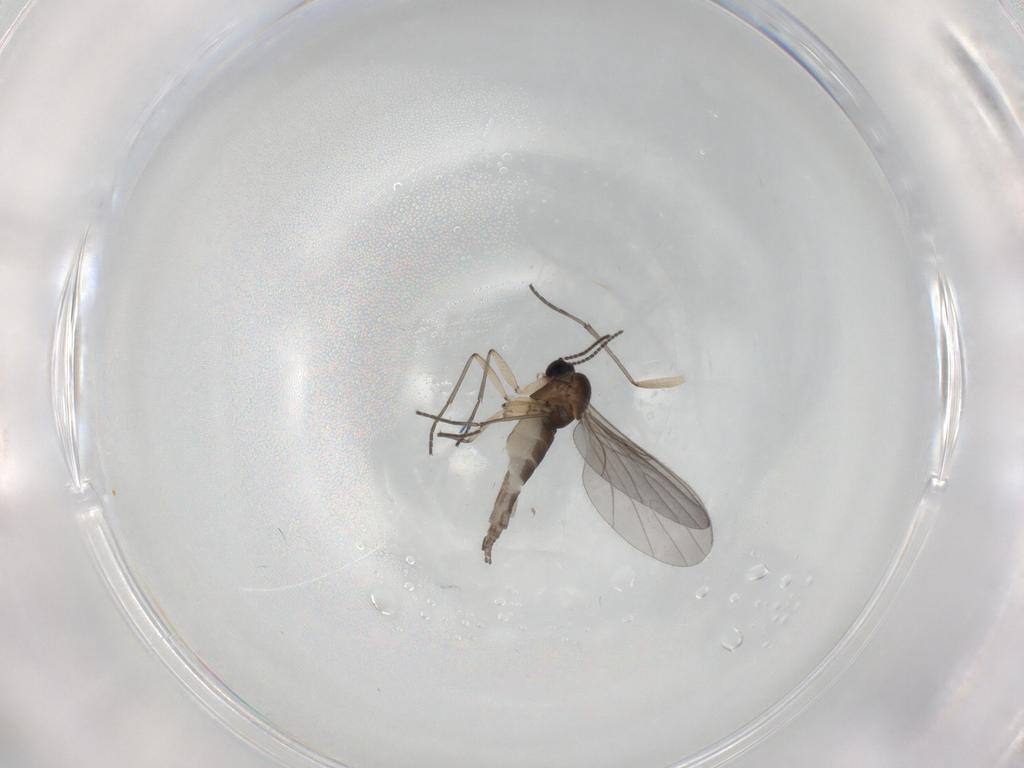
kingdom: Animalia
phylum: Arthropoda
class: Insecta
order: Diptera
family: Sciaridae
